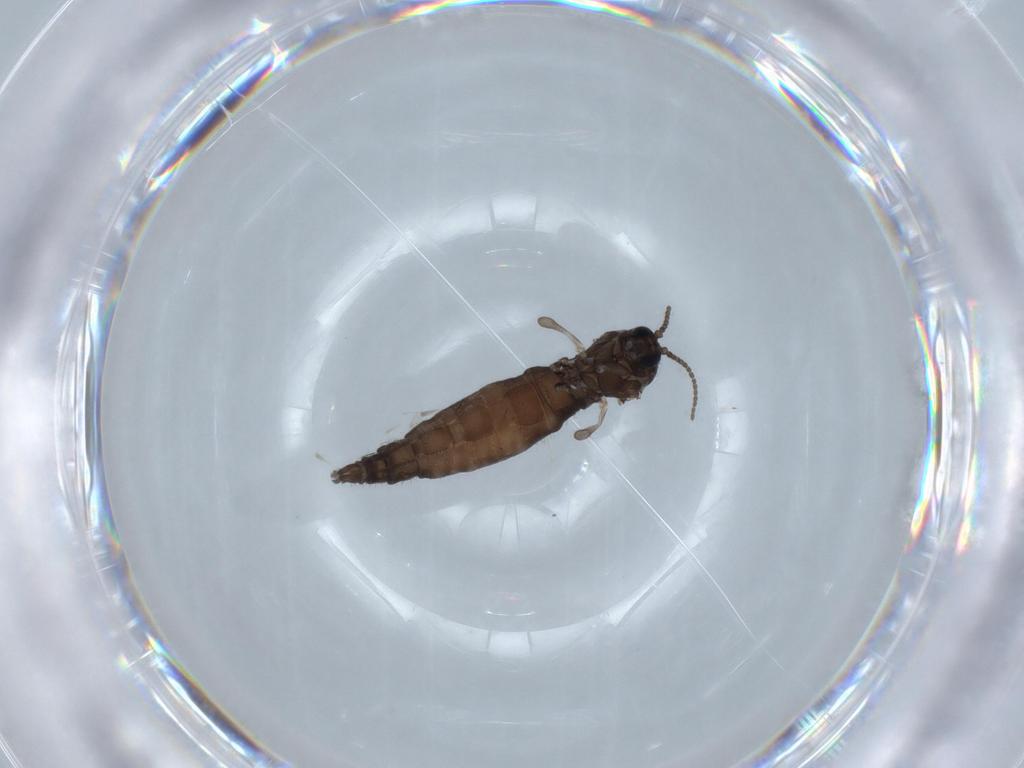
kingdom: Animalia
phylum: Arthropoda
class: Insecta
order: Diptera
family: Sciaridae
